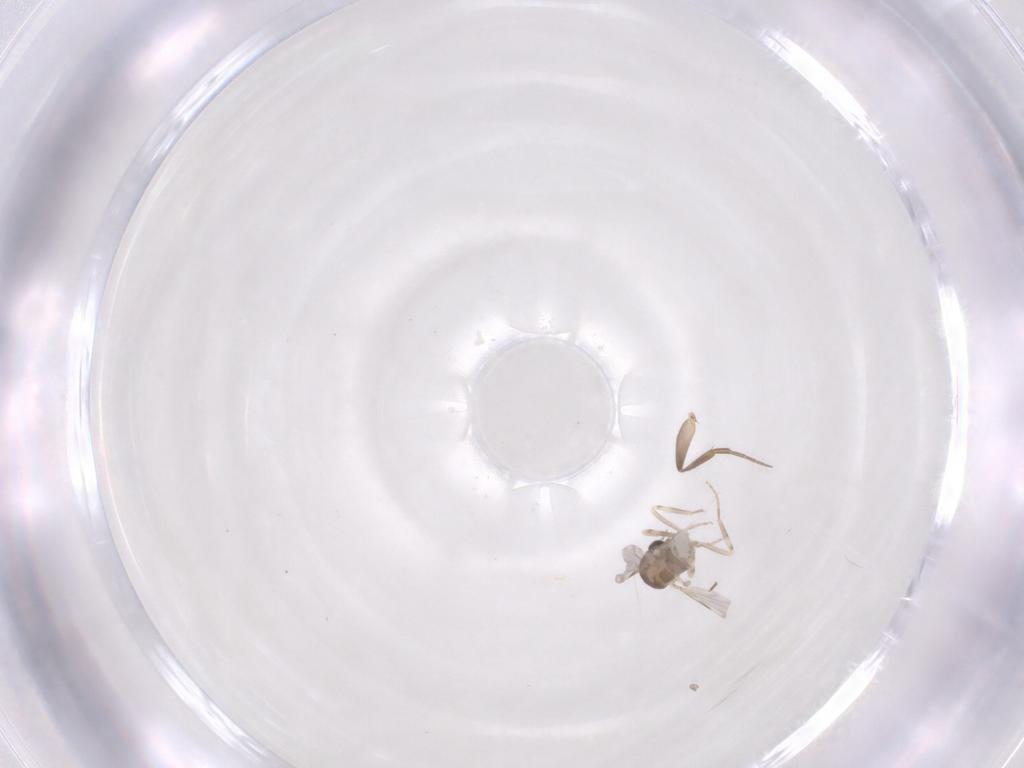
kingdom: Animalia
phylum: Arthropoda
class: Insecta
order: Diptera
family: Ceratopogonidae
